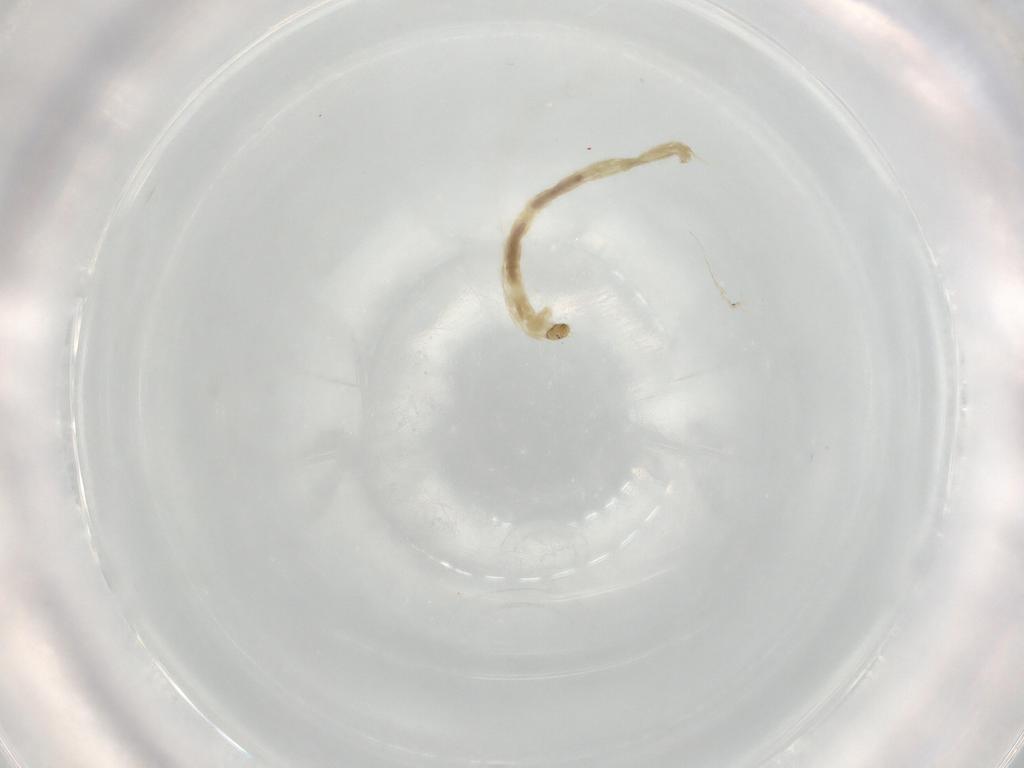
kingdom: Animalia
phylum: Arthropoda
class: Insecta
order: Diptera
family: Chironomidae
